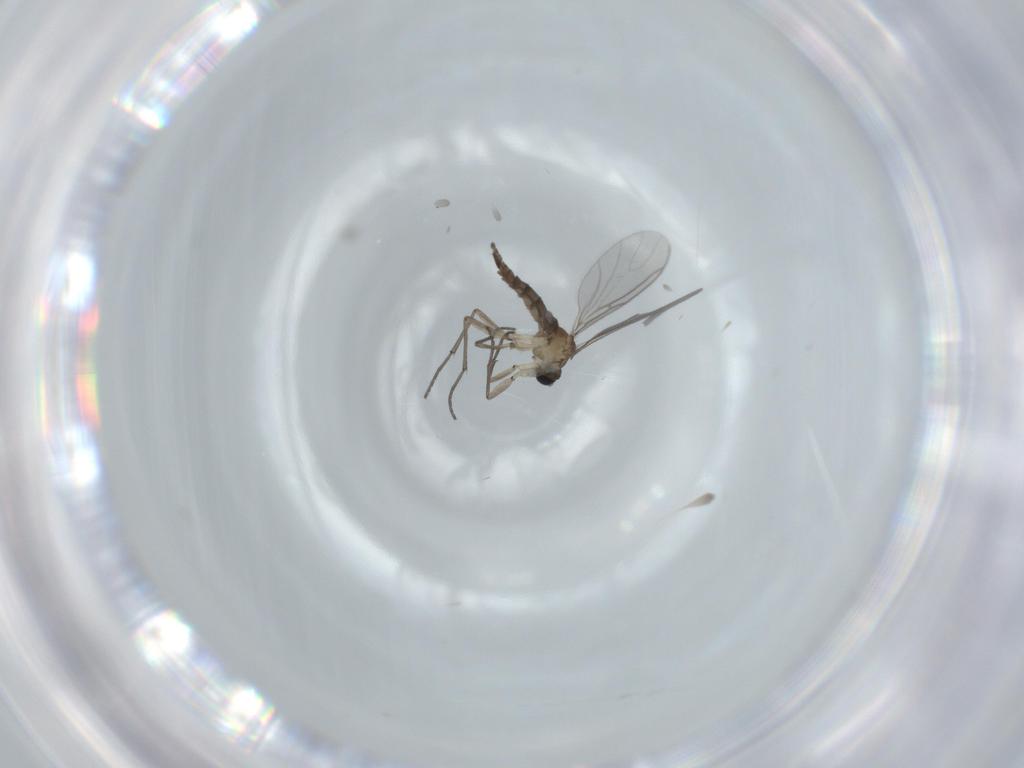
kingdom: Animalia
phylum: Arthropoda
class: Insecta
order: Diptera
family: Sciaridae
